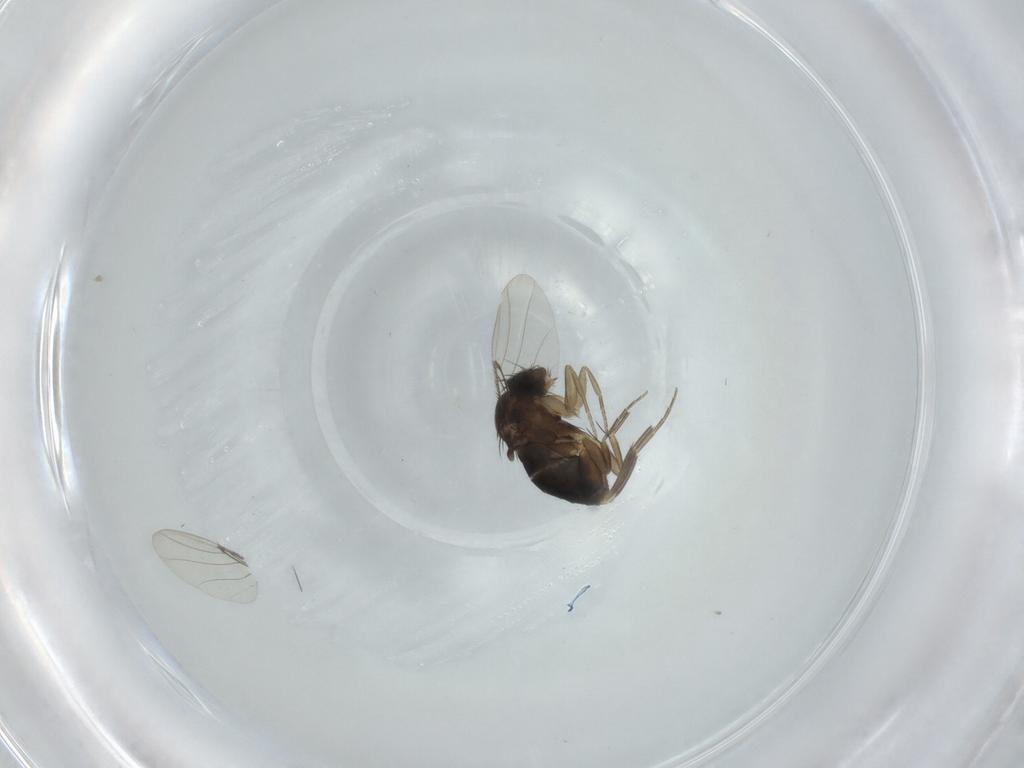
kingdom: Animalia
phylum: Arthropoda
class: Insecta
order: Diptera
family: Phoridae
